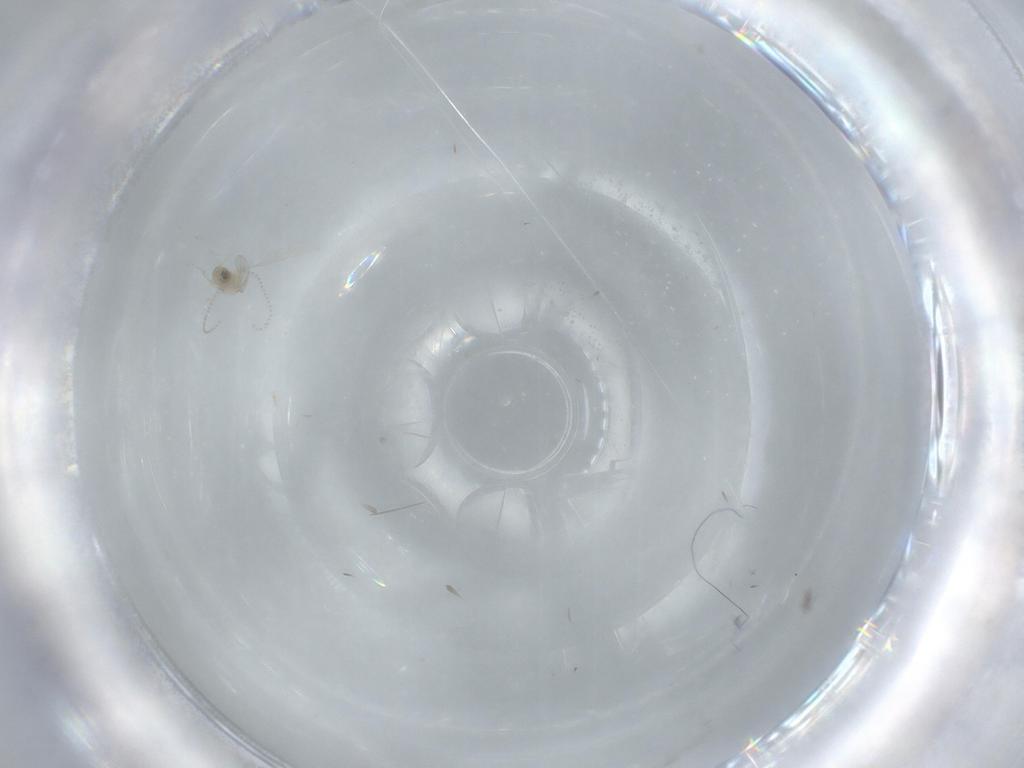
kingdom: Animalia
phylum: Arthropoda
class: Insecta
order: Diptera
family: Cecidomyiidae
